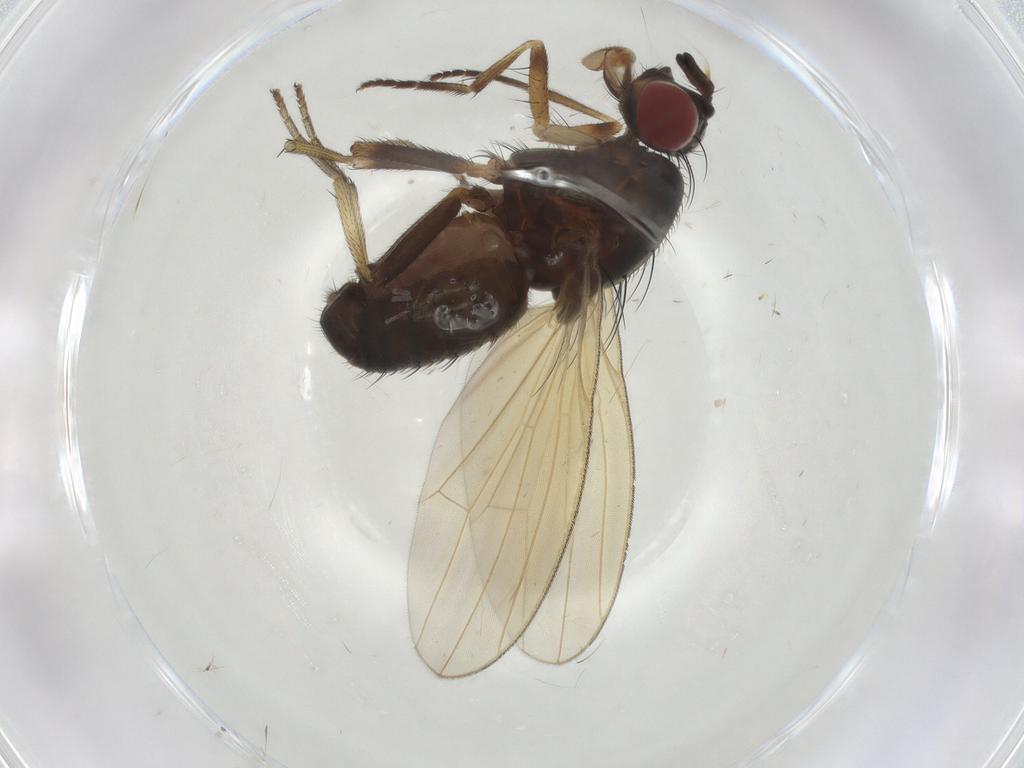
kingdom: Animalia
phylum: Arthropoda
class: Insecta
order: Diptera
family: Lauxaniidae
